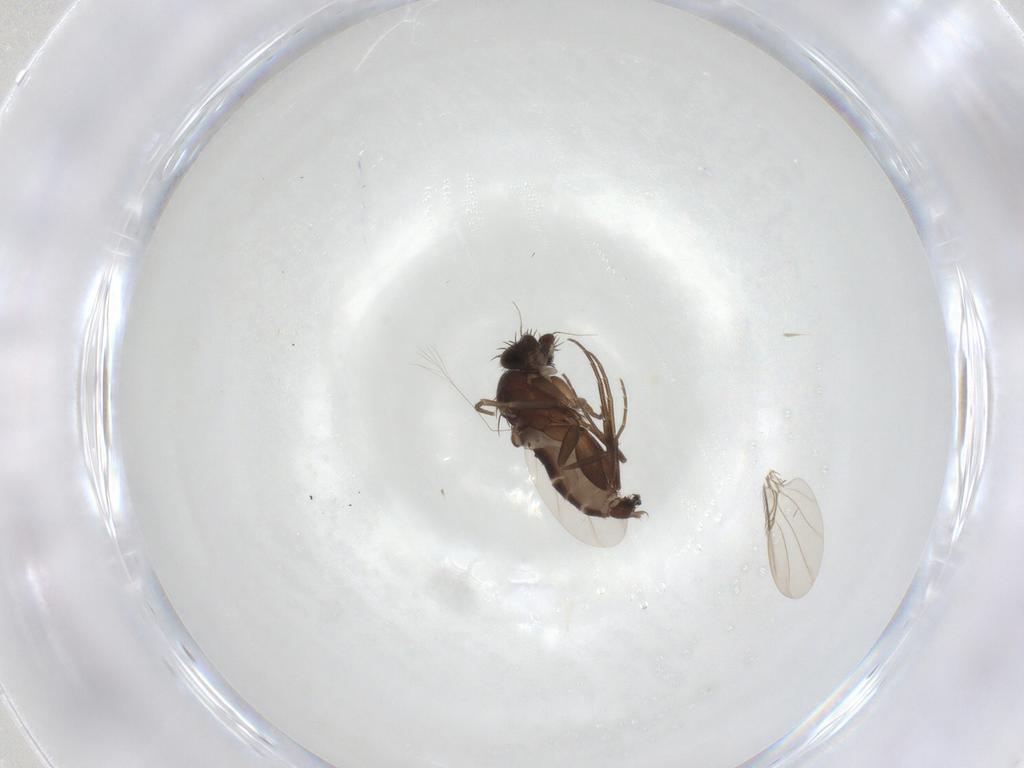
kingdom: Animalia
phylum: Arthropoda
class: Insecta
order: Diptera
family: Phoridae
